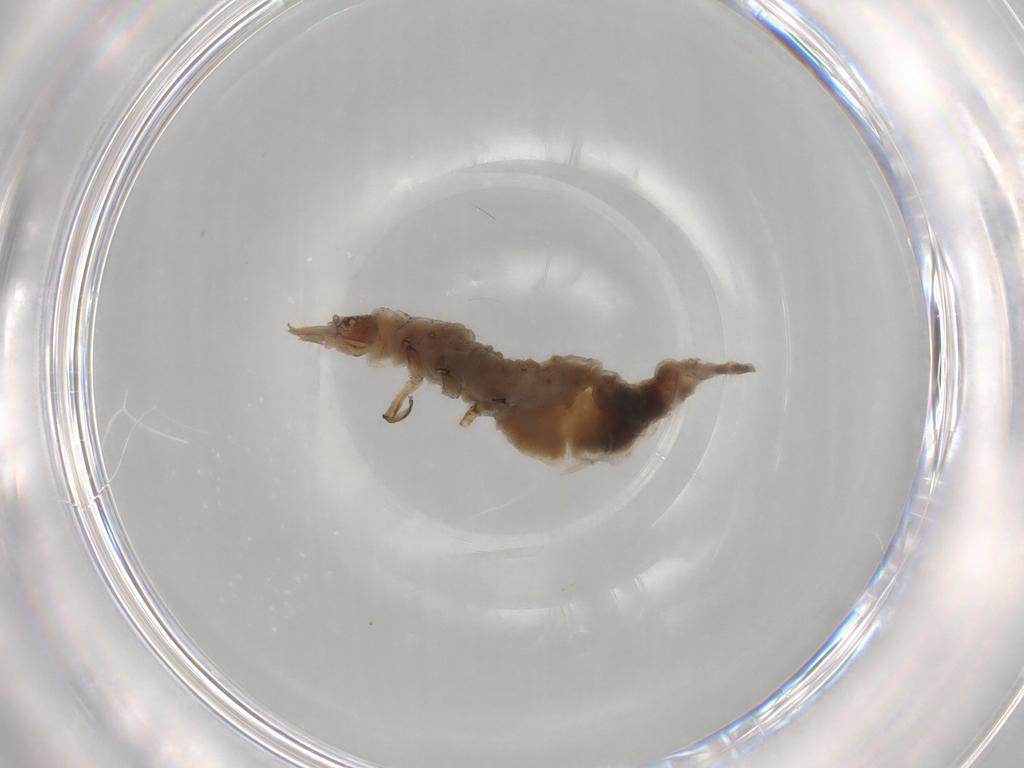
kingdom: Animalia
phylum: Arthropoda
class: Insecta
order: Neuroptera
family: Hemerobiidae
